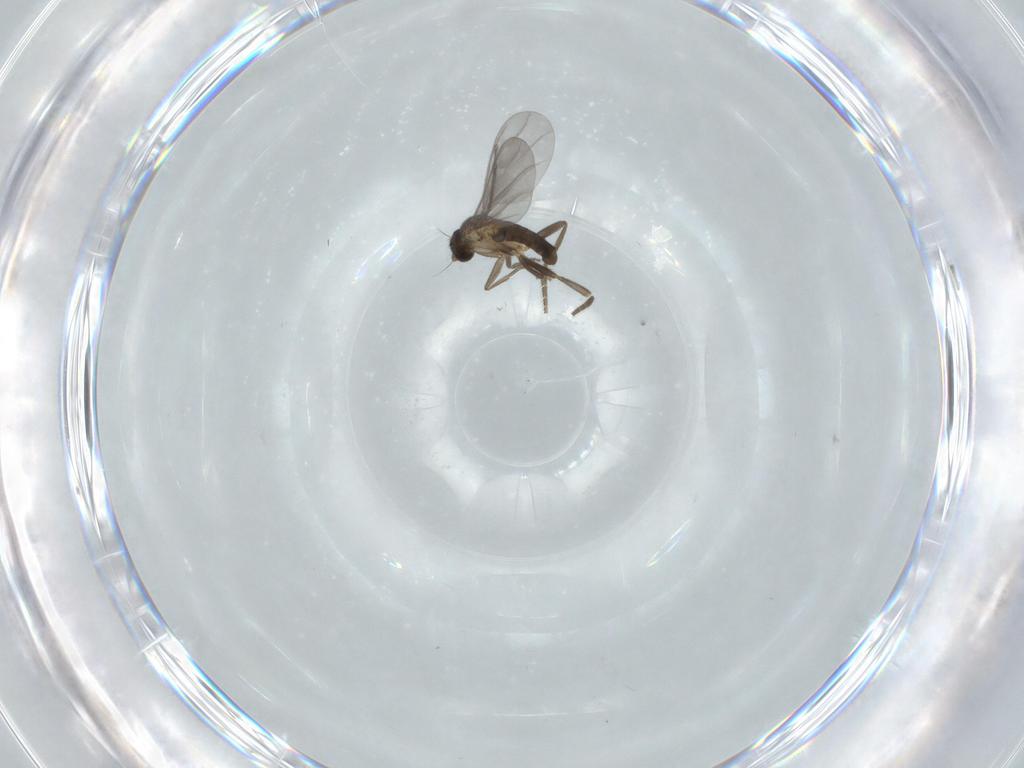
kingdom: Animalia
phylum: Arthropoda
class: Insecta
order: Diptera
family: Phoridae
